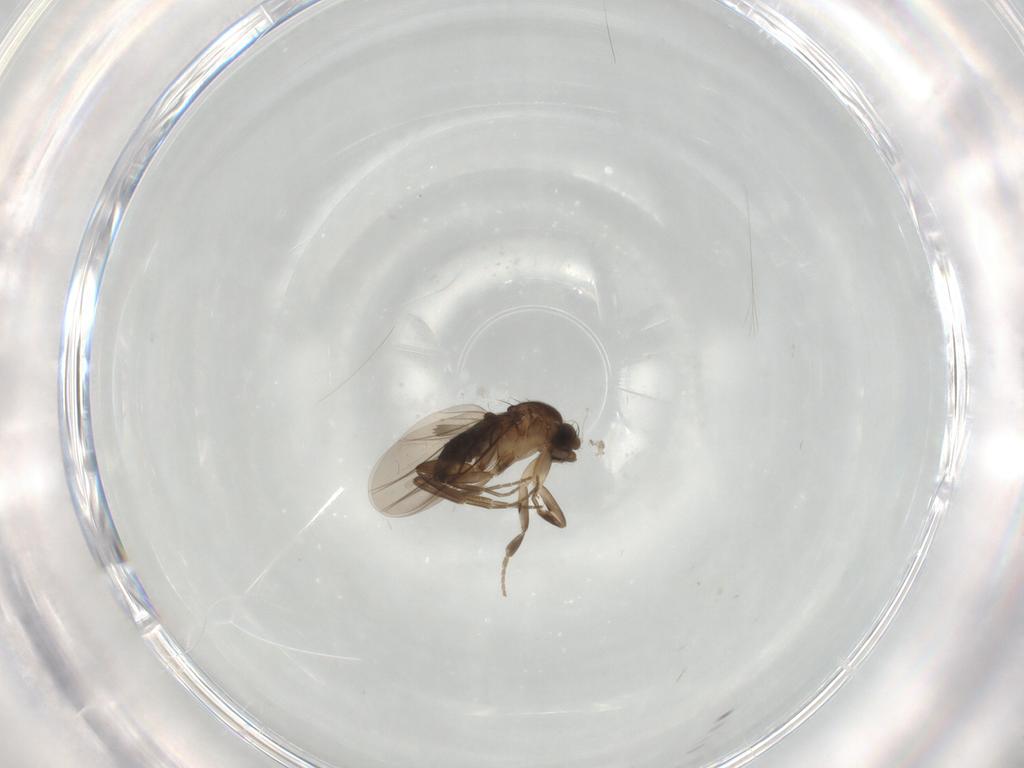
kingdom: Animalia
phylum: Arthropoda
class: Insecta
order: Diptera
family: Phoridae
